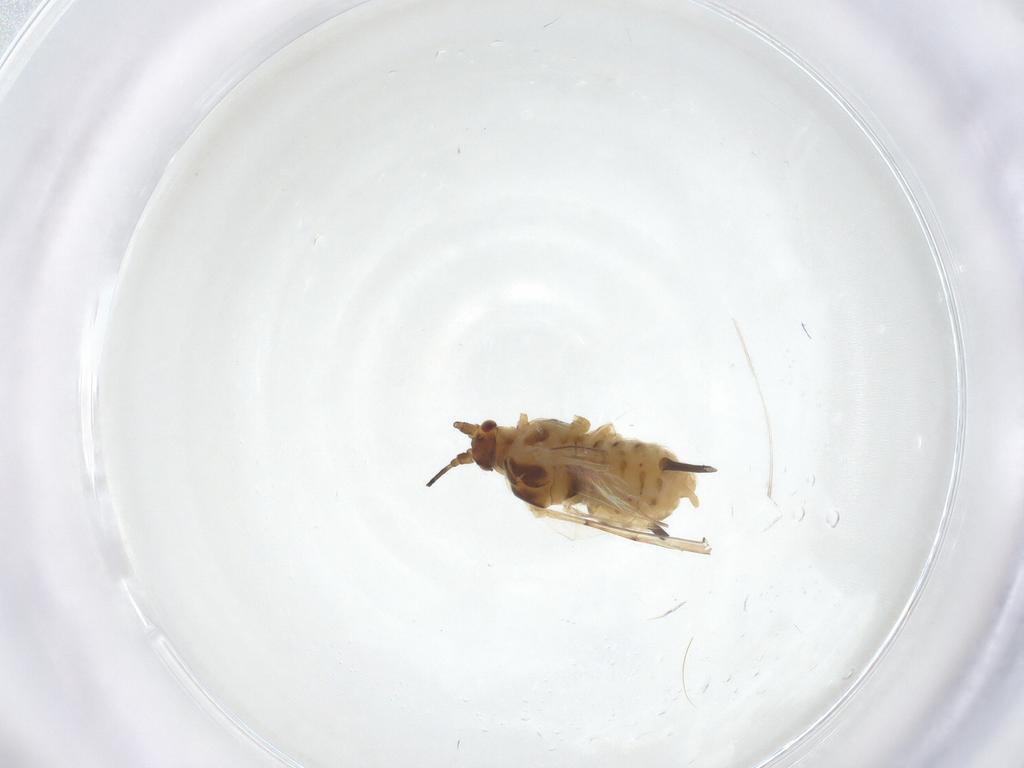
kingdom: Animalia
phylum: Arthropoda
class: Insecta
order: Hemiptera
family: Aphididae
